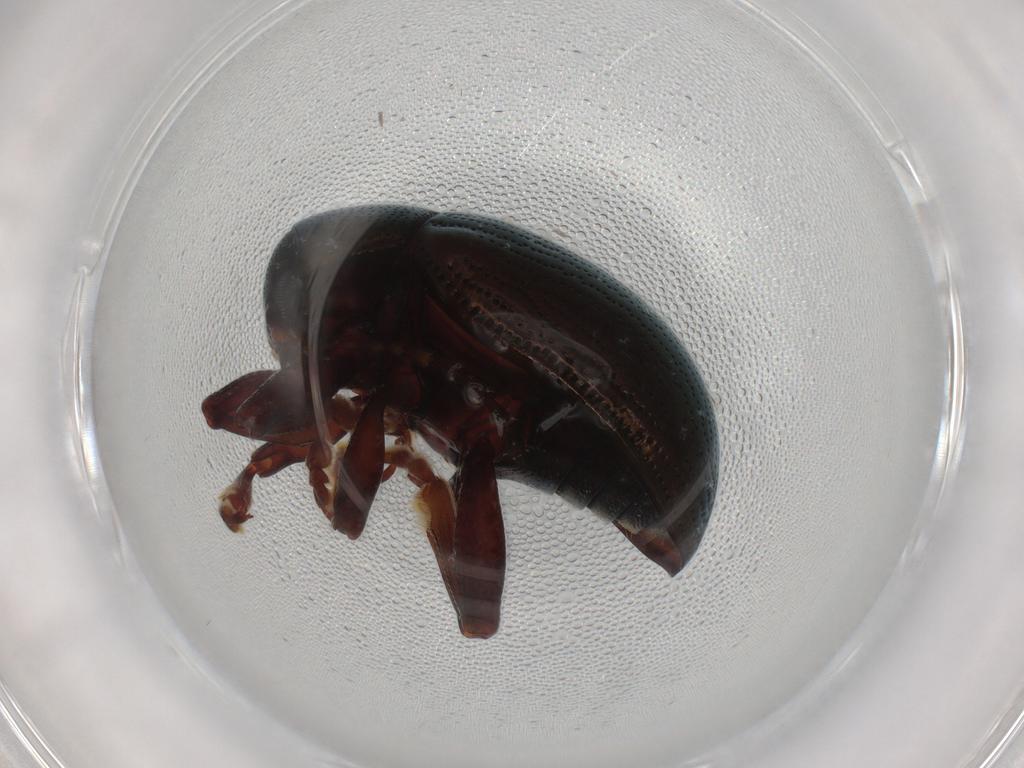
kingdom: Animalia
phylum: Arthropoda
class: Insecta
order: Coleoptera
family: Chrysomelidae
